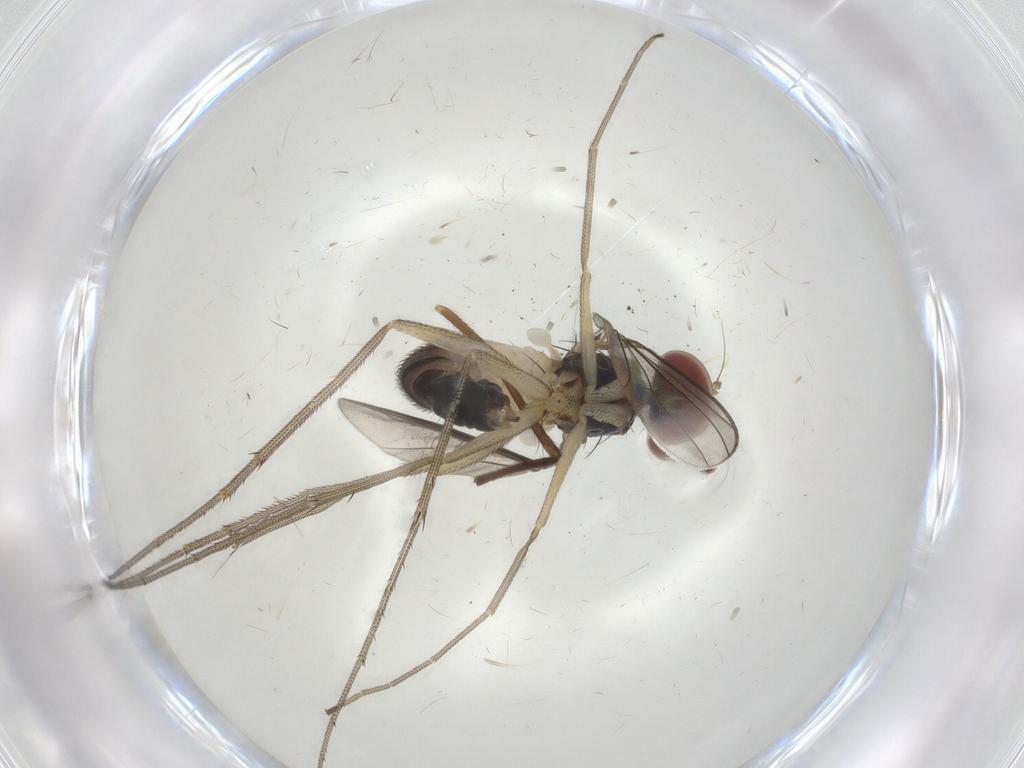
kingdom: Animalia
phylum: Arthropoda
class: Insecta
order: Diptera
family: Dolichopodidae
